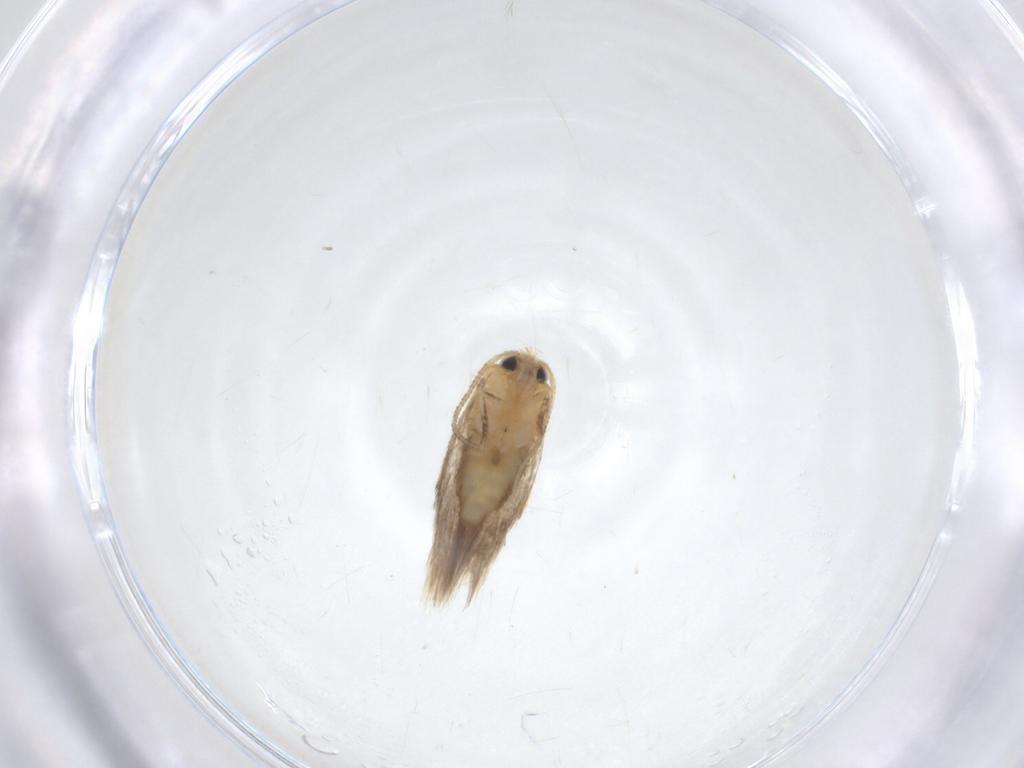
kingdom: Animalia
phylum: Arthropoda
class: Insecta
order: Lepidoptera
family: Nepticulidae
